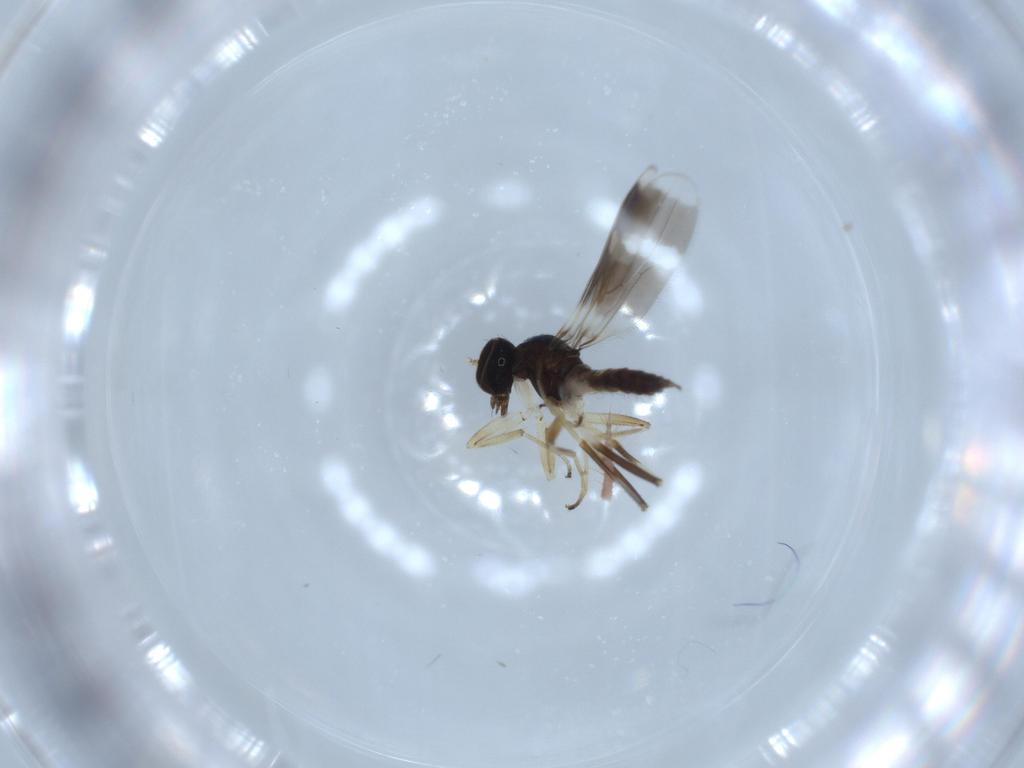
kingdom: Animalia
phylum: Arthropoda
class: Insecta
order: Diptera
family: Hybotidae
